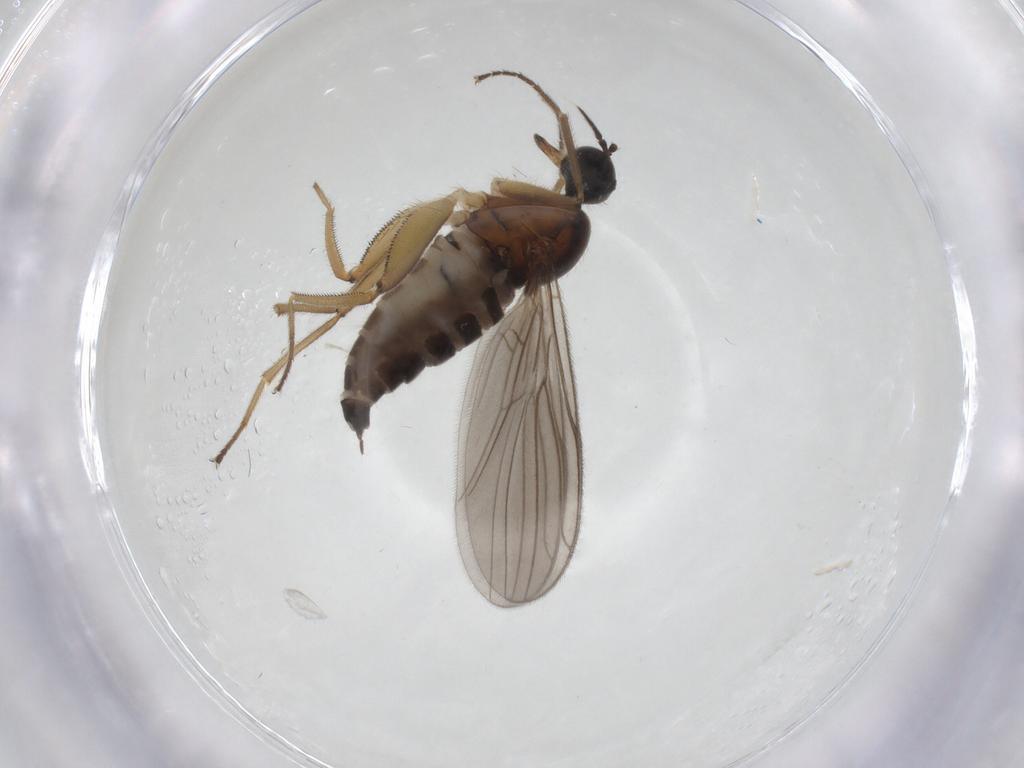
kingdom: Animalia
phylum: Arthropoda
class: Insecta
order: Diptera
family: Hybotidae
